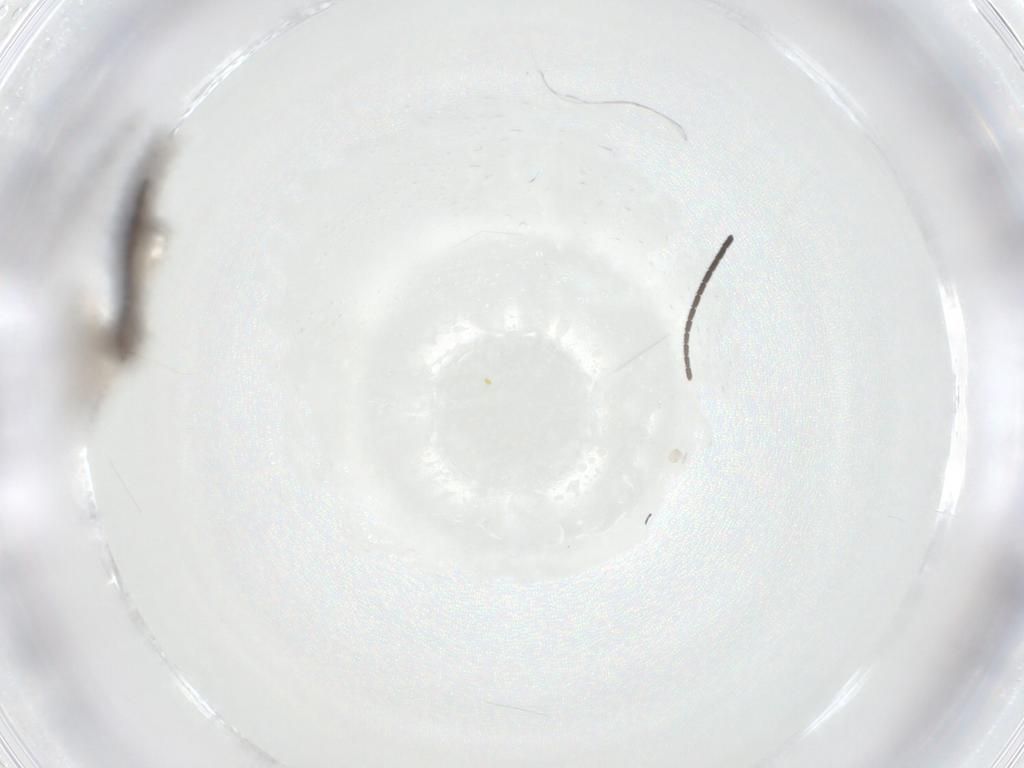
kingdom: Animalia
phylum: Arthropoda
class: Insecta
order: Diptera
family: Sciaridae
